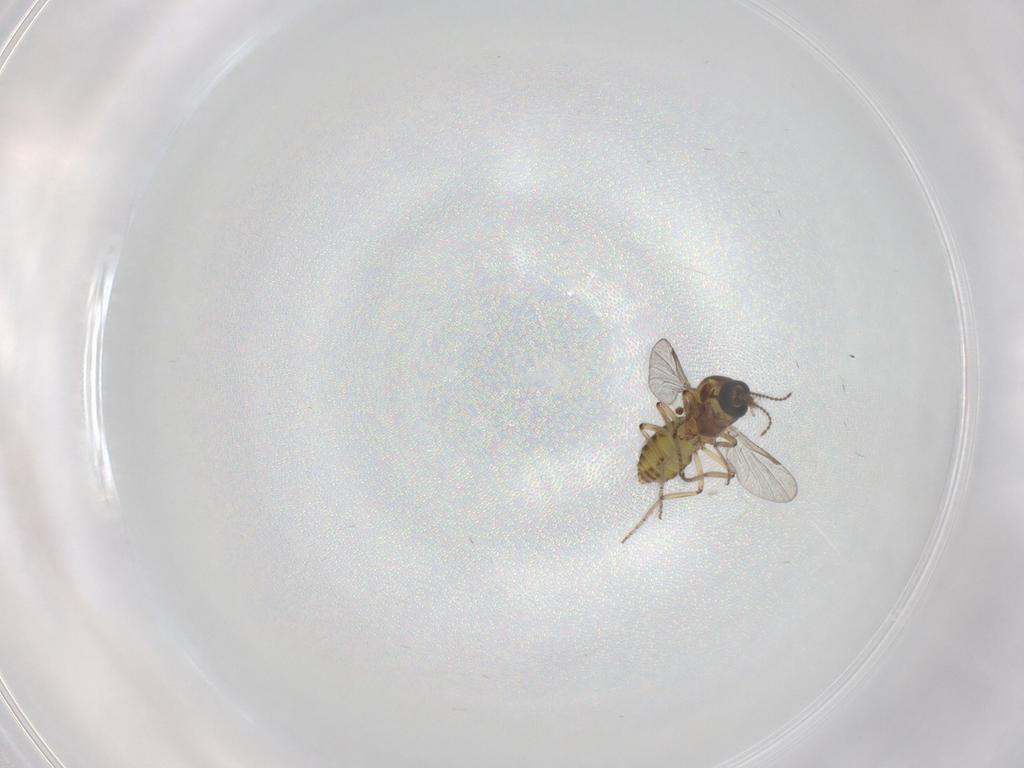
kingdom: Animalia
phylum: Arthropoda
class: Insecta
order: Diptera
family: Ceratopogonidae
